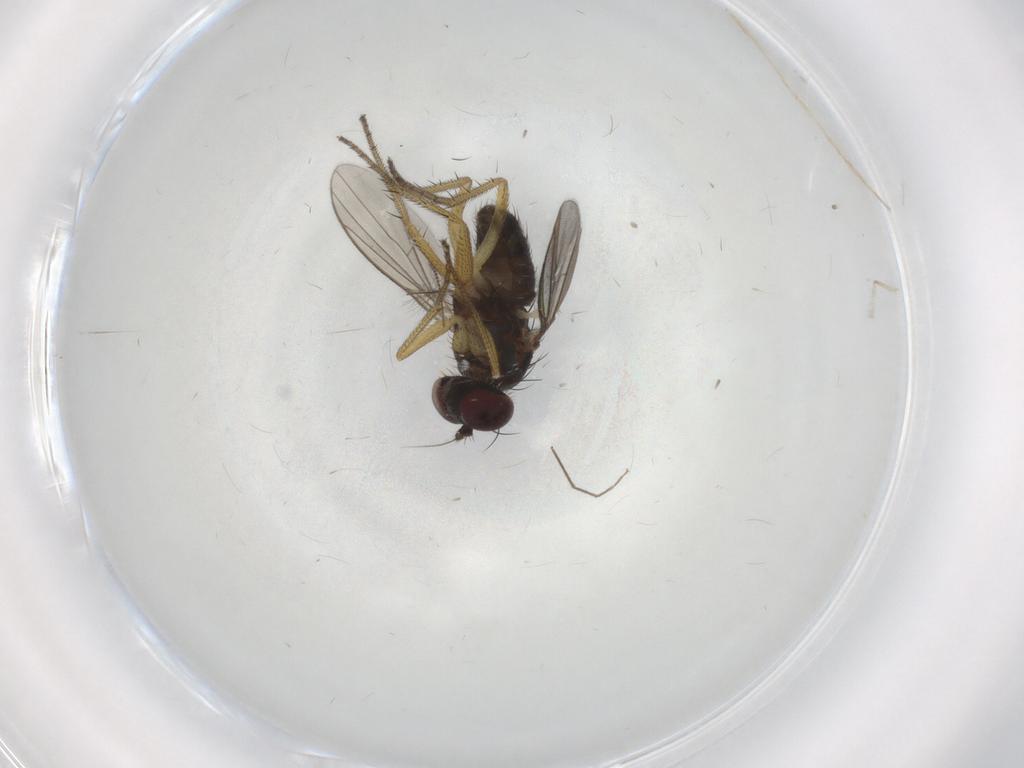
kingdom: Animalia
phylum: Arthropoda
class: Insecta
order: Diptera
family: Chironomidae
